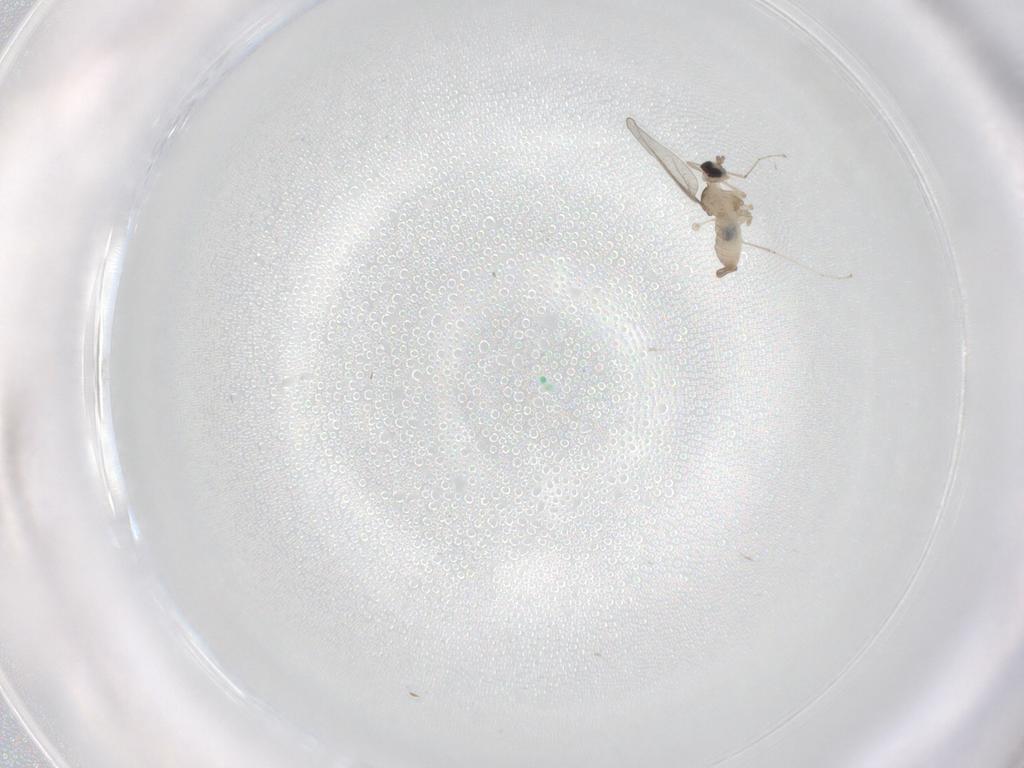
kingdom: Animalia
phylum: Arthropoda
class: Insecta
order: Diptera
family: Cecidomyiidae
